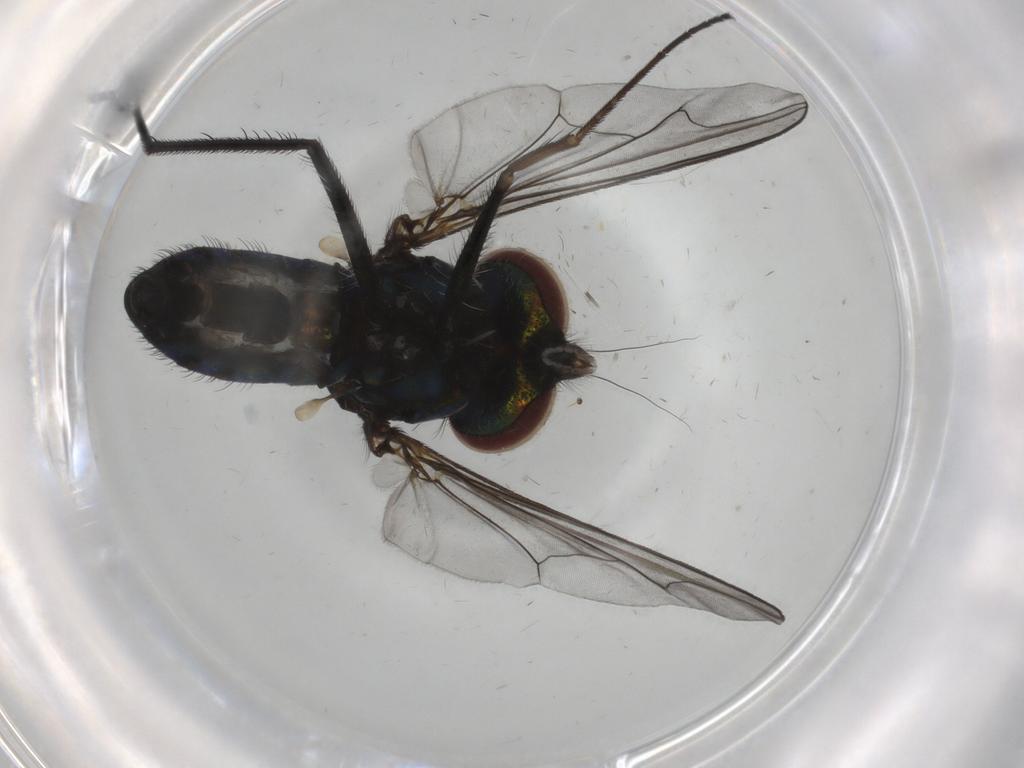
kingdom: Animalia
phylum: Arthropoda
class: Insecta
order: Diptera
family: Dolichopodidae
